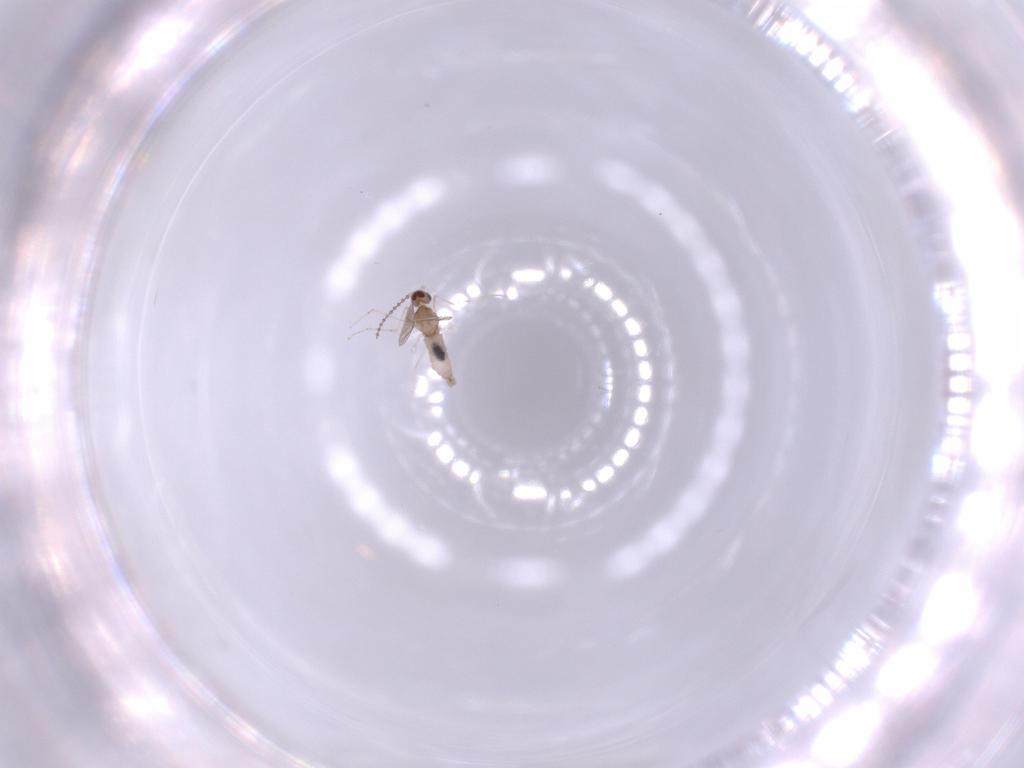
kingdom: Animalia
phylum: Arthropoda
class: Insecta
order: Diptera
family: Cecidomyiidae
